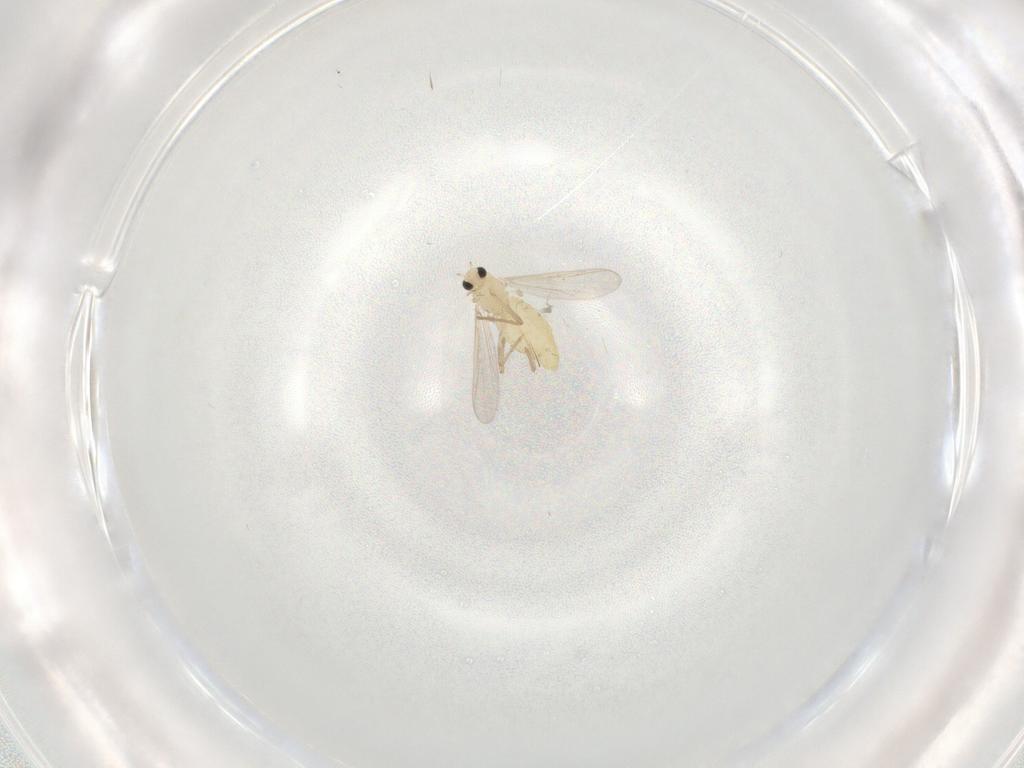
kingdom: Animalia
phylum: Arthropoda
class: Insecta
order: Diptera
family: Chironomidae
